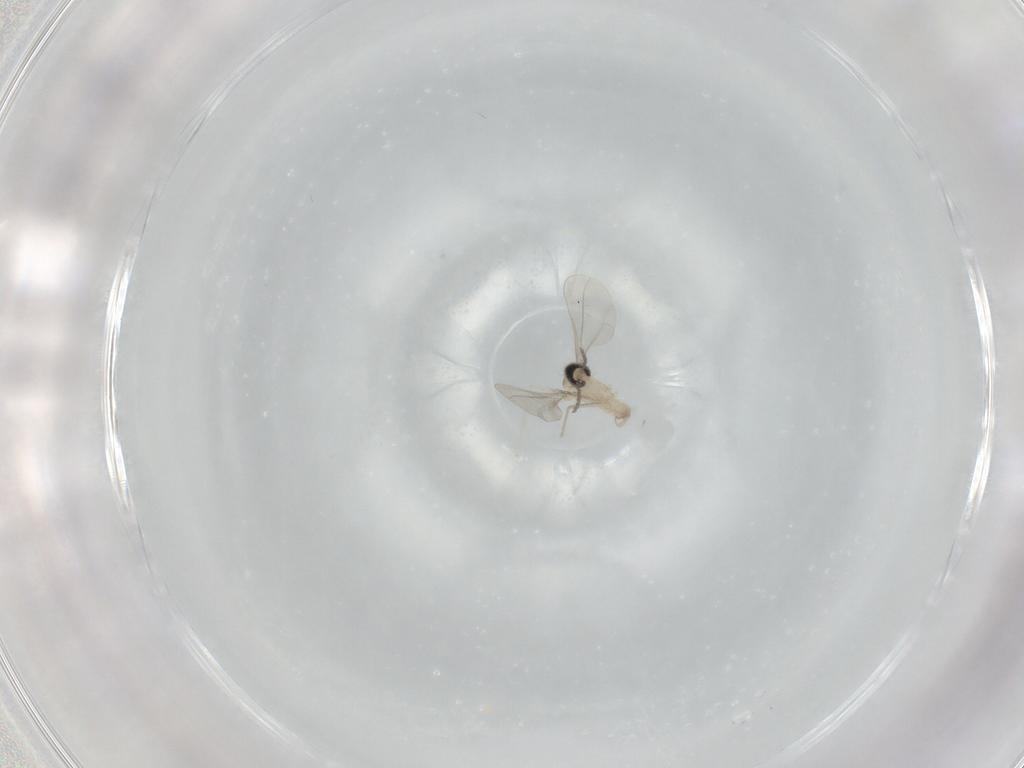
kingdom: Animalia
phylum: Arthropoda
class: Insecta
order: Diptera
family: Cecidomyiidae
